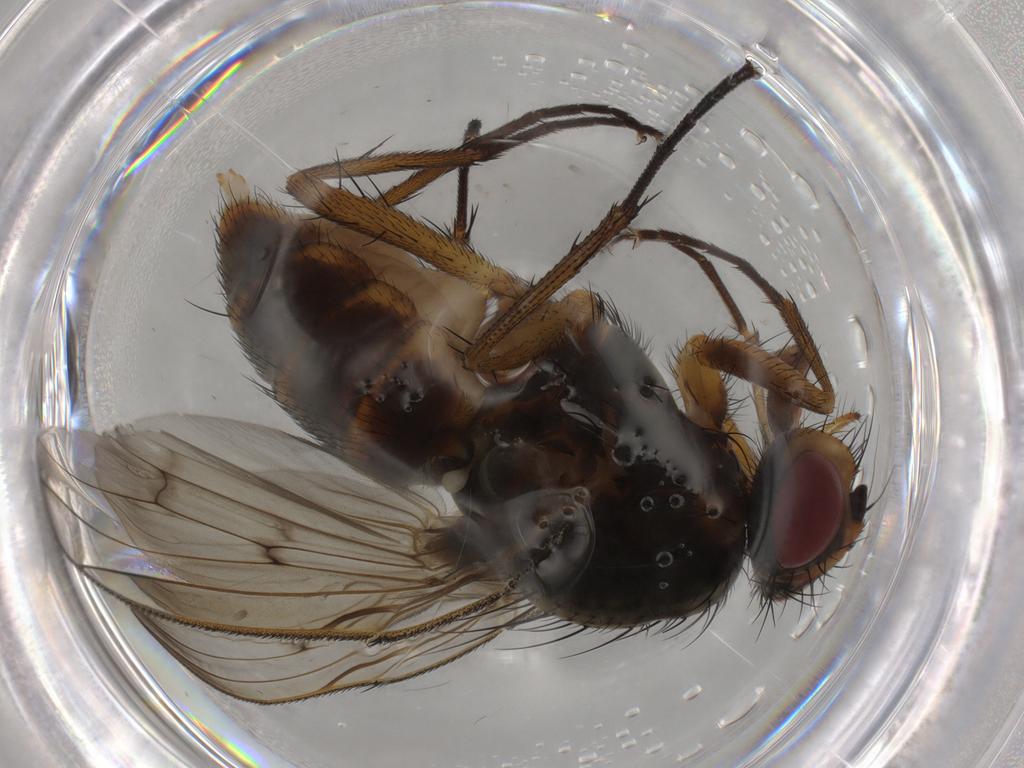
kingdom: Animalia
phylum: Arthropoda
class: Insecta
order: Diptera
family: Anthomyiidae
